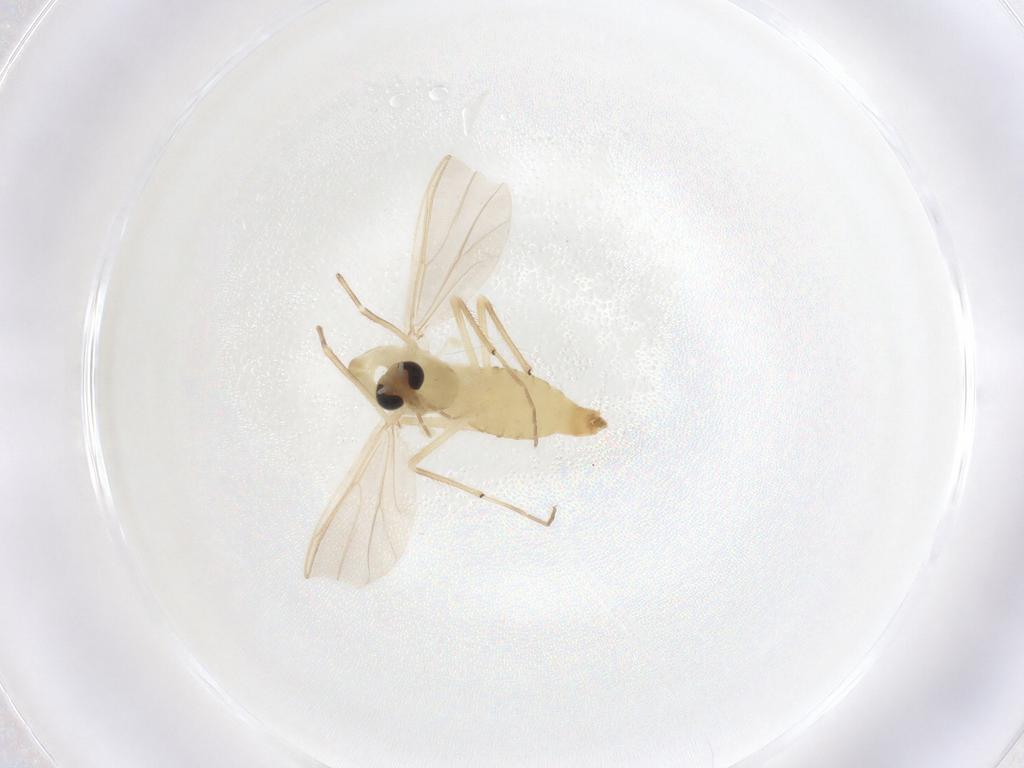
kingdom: Animalia
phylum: Arthropoda
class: Insecta
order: Diptera
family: Chironomidae
